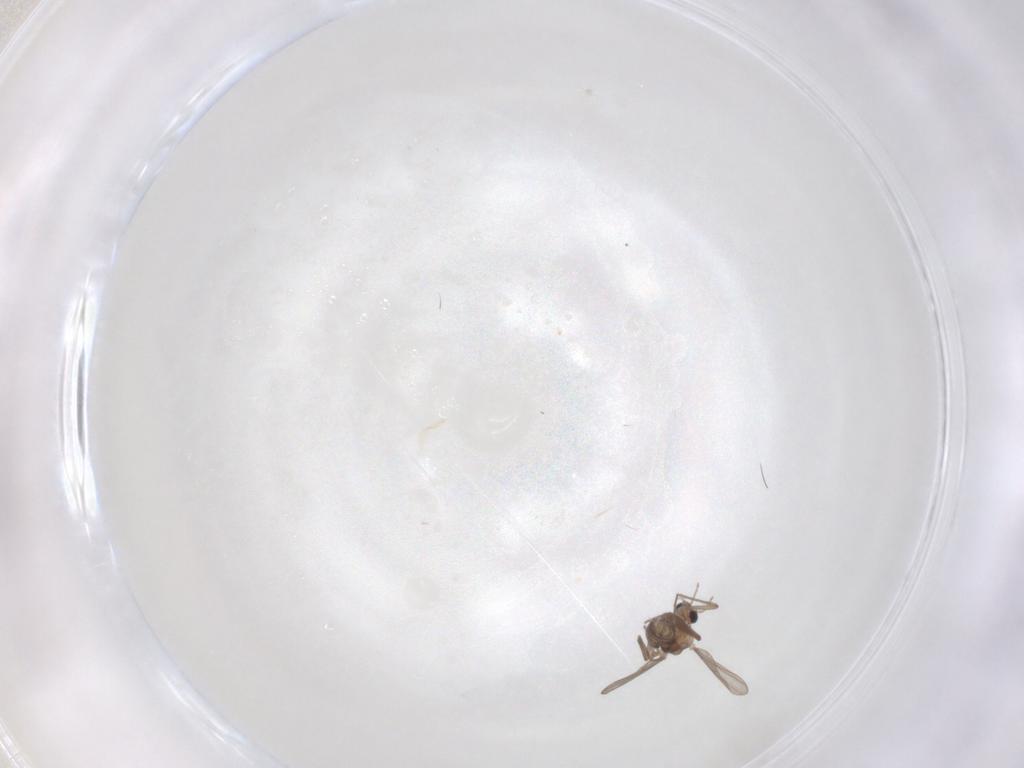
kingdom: Animalia
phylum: Arthropoda
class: Insecta
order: Diptera
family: Chironomidae
